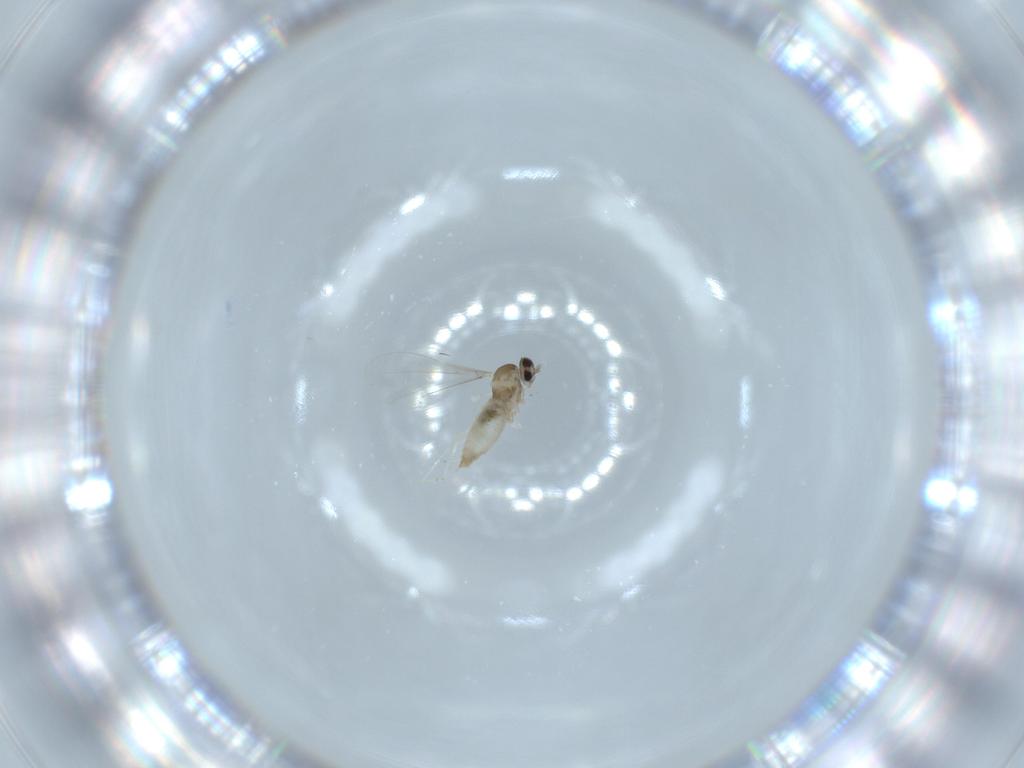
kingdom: Animalia
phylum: Arthropoda
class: Insecta
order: Diptera
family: Cecidomyiidae
